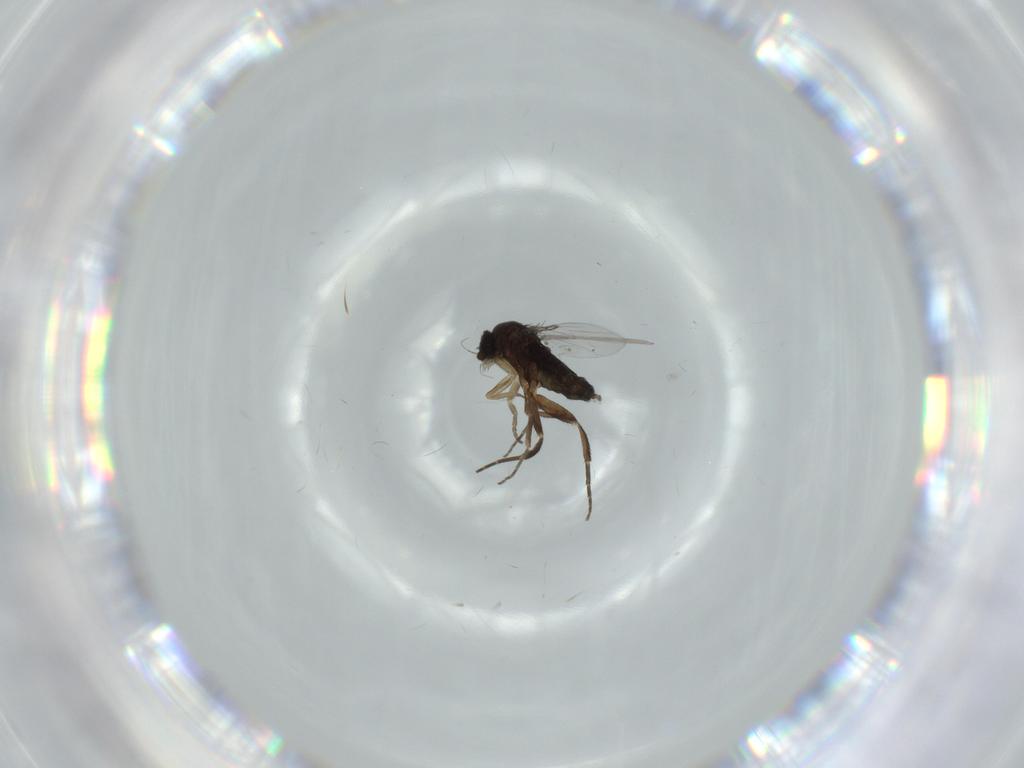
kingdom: Animalia
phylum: Arthropoda
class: Insecta
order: Diptera
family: Phoridae
